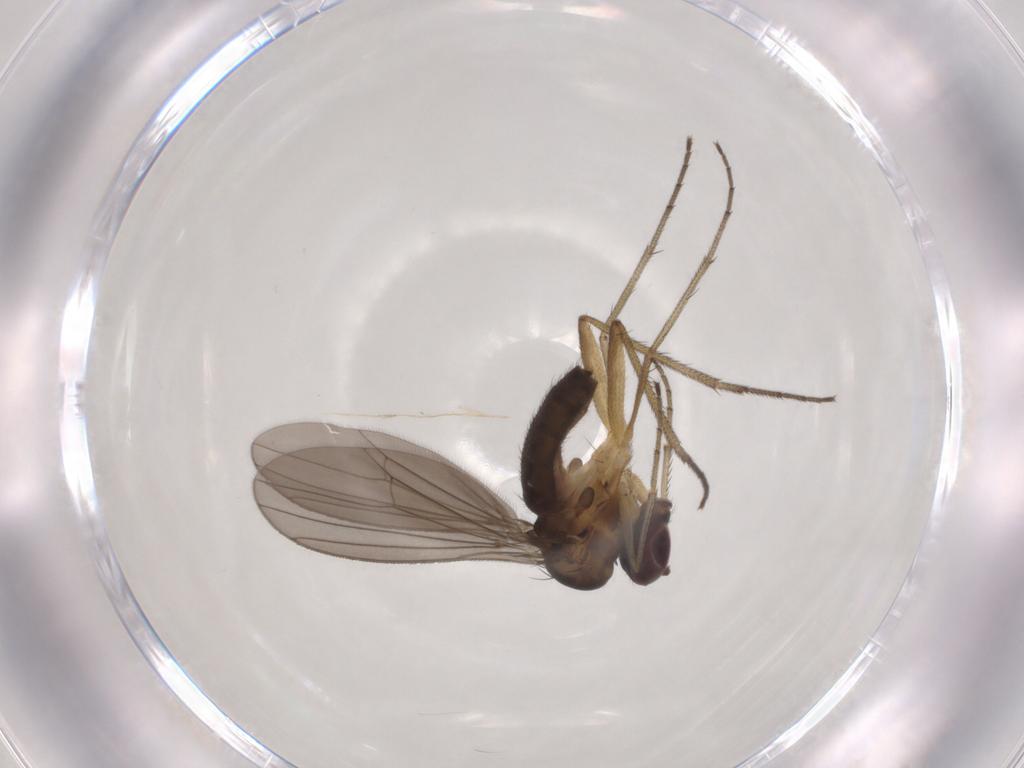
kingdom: Animalia
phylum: Arthropoda
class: Insecta
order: Diptera
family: Dolichopodidae
